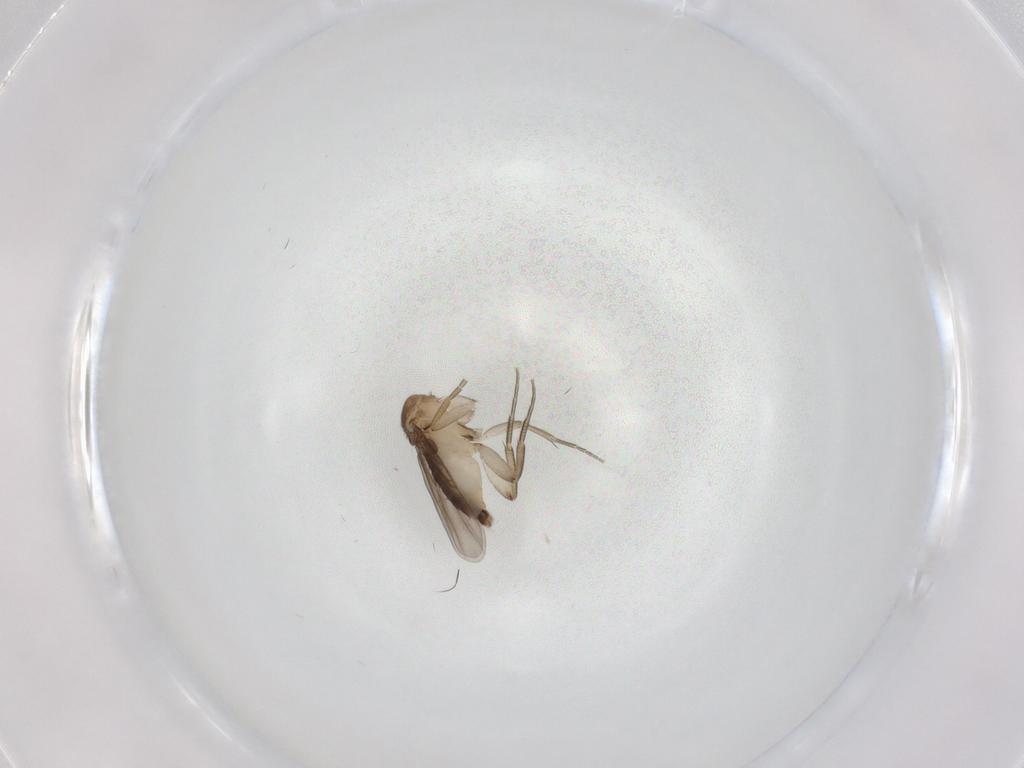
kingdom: Animalia
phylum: Arthropoda
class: Insecta
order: Diptera
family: Phoridae
